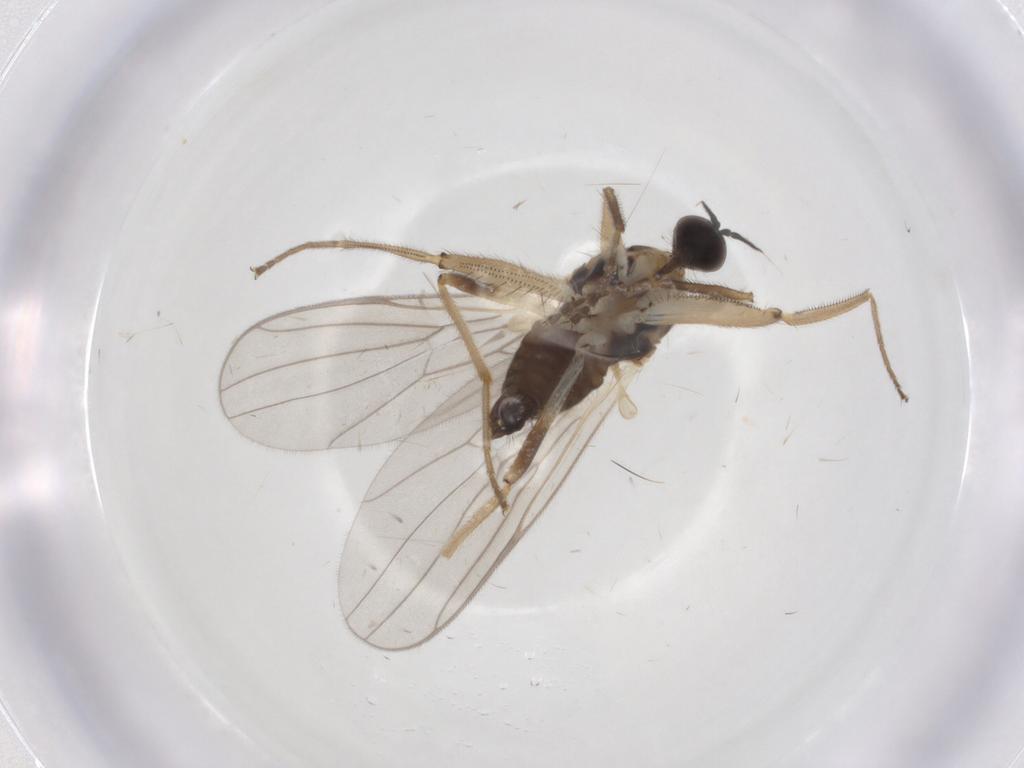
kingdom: Animalia
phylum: Arthropoda
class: Insecta
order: Diptera
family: Hybotidae
